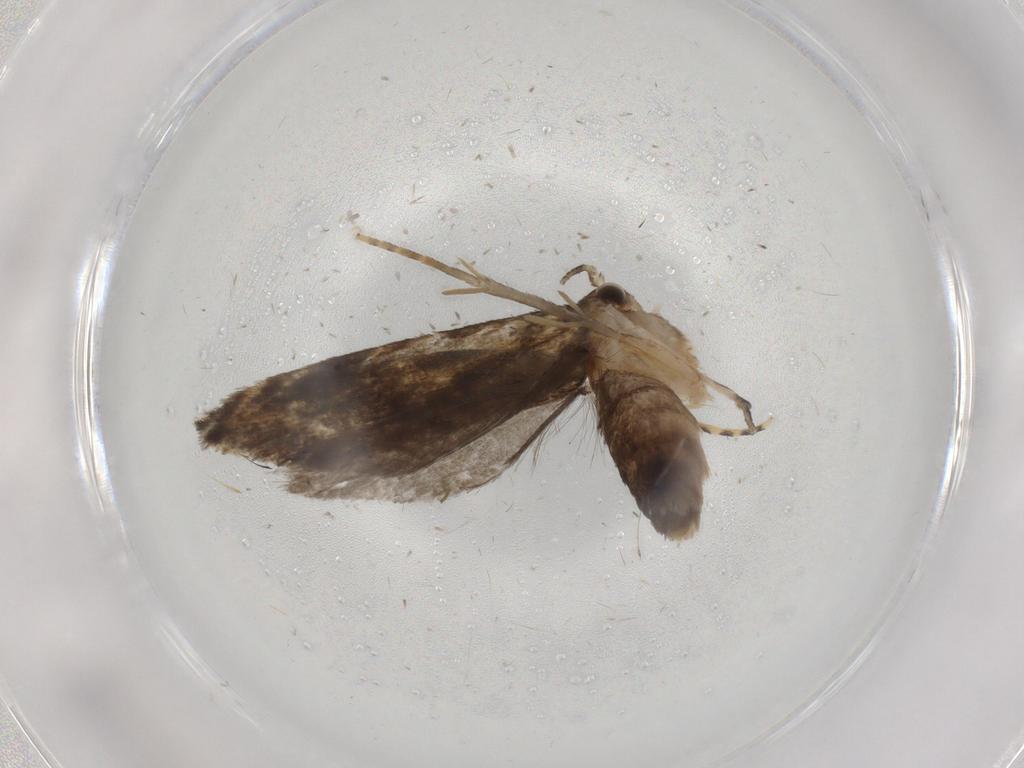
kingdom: Animalia
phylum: Arthropoda
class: Insecta
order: Lepidoptera
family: Tineidae
